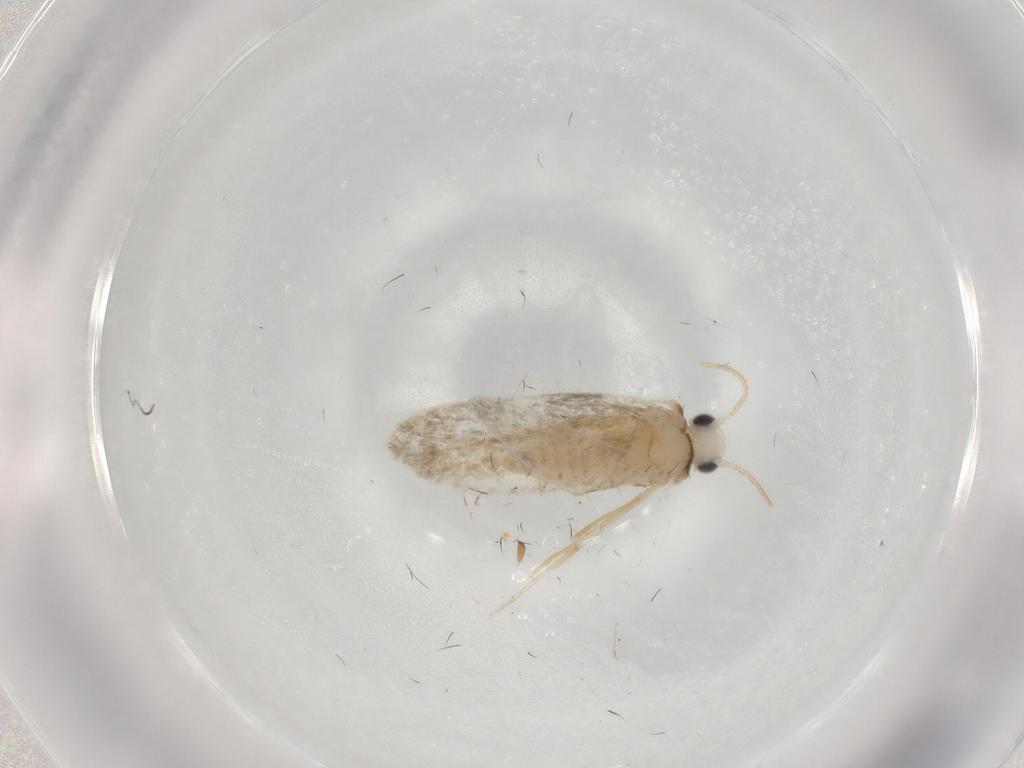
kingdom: Animalia
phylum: Arthropoda
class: Insecta
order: Lepidoptera
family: Psychidae
